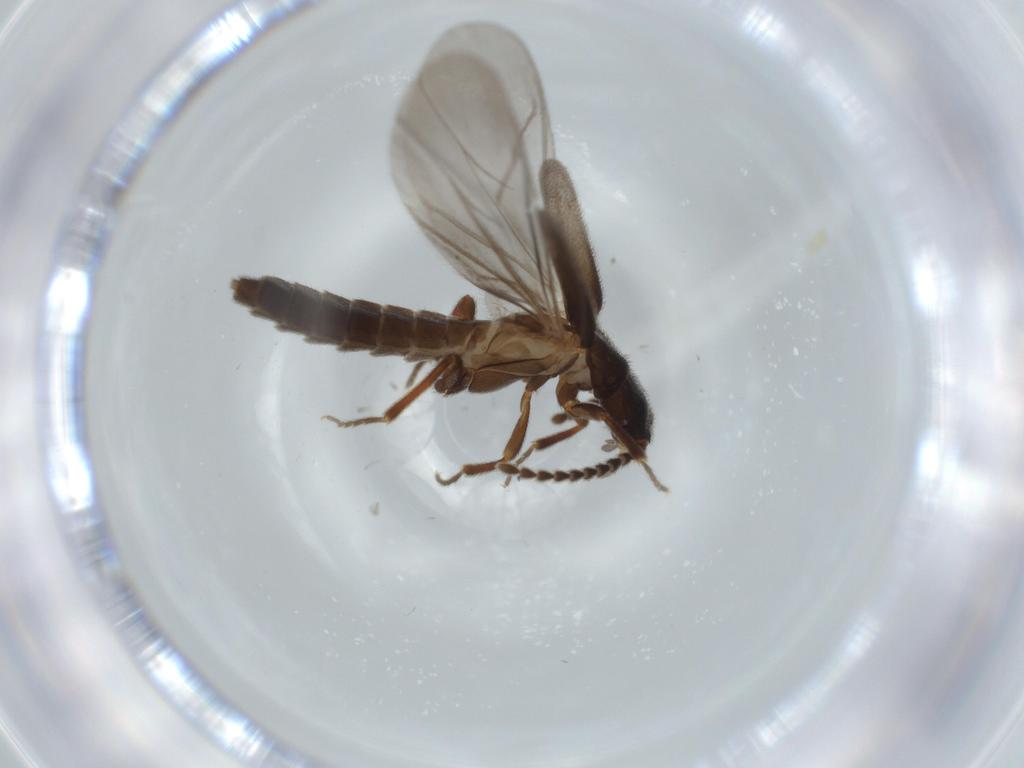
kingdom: Animalia
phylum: Arthropoda
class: Insecta
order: Coleoptera
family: Omethidae
